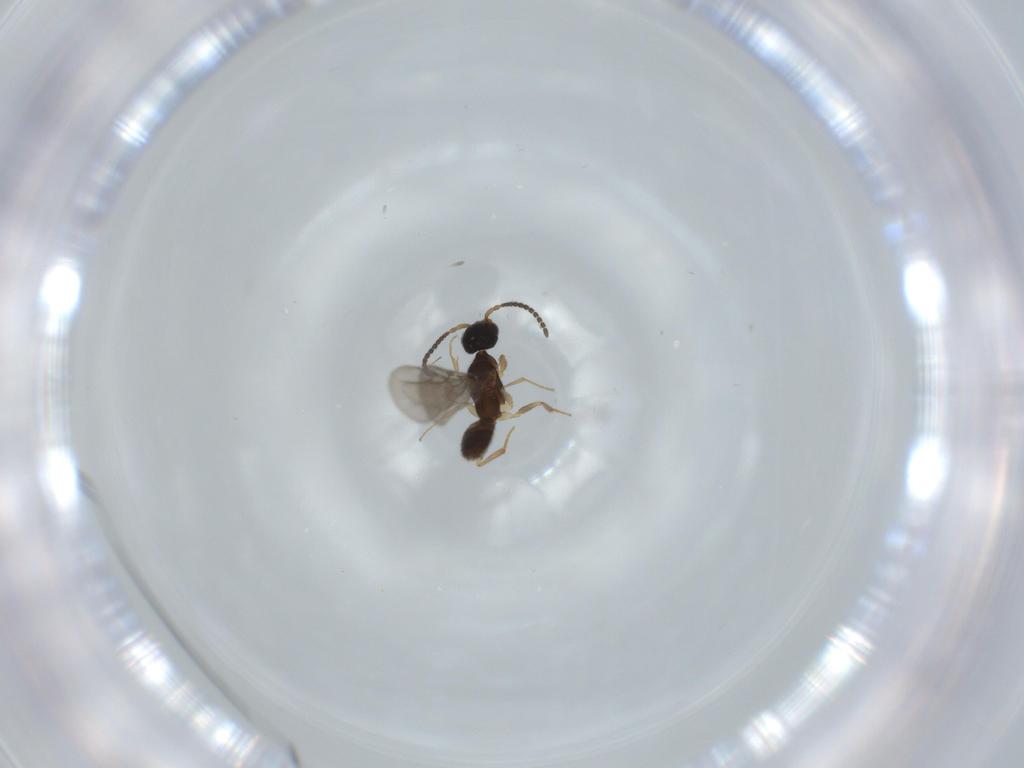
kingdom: Animalia
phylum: Arthropoda
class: Insecta
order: Hymenoptera
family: Bethylidae
